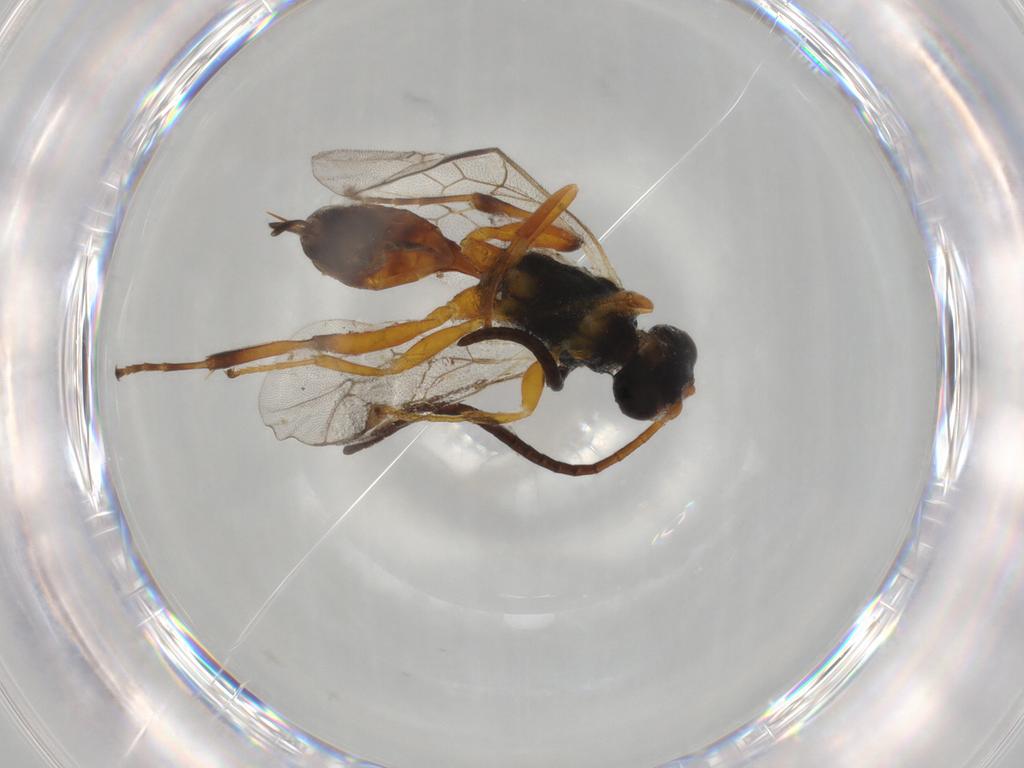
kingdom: Animalia
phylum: Arthropoda
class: Insecta
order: Hymenoptera
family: Ichneumonidae
